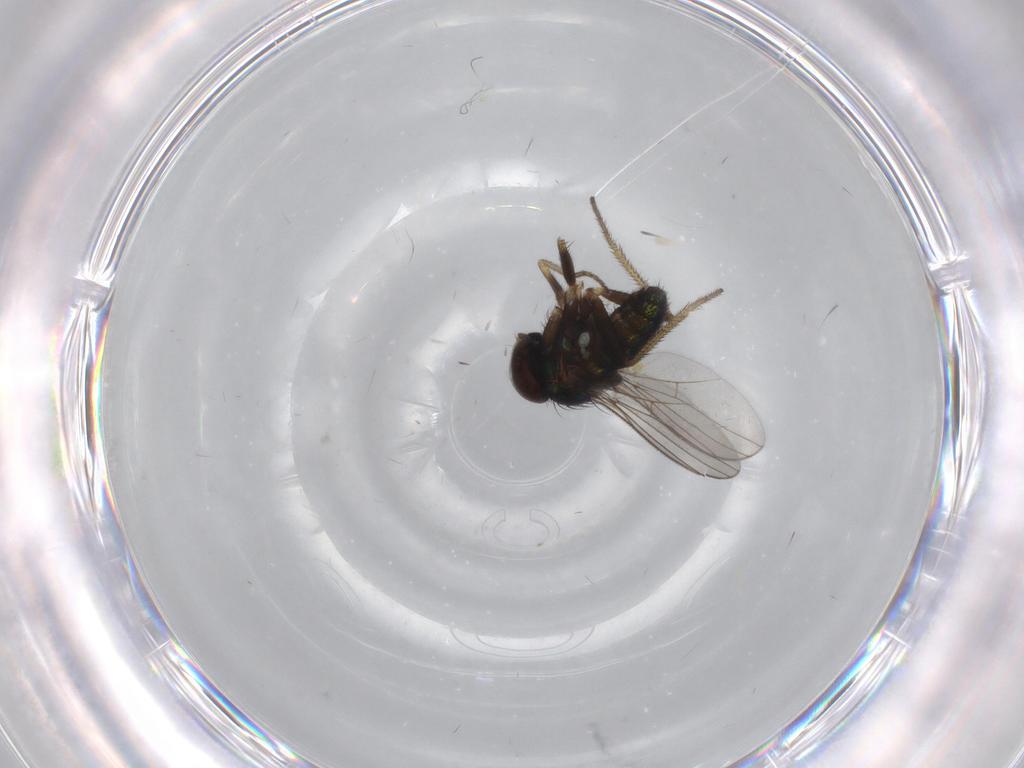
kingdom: Animalia
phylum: Arthropoda
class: Insecta
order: Diptera
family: Dolichopodidae
